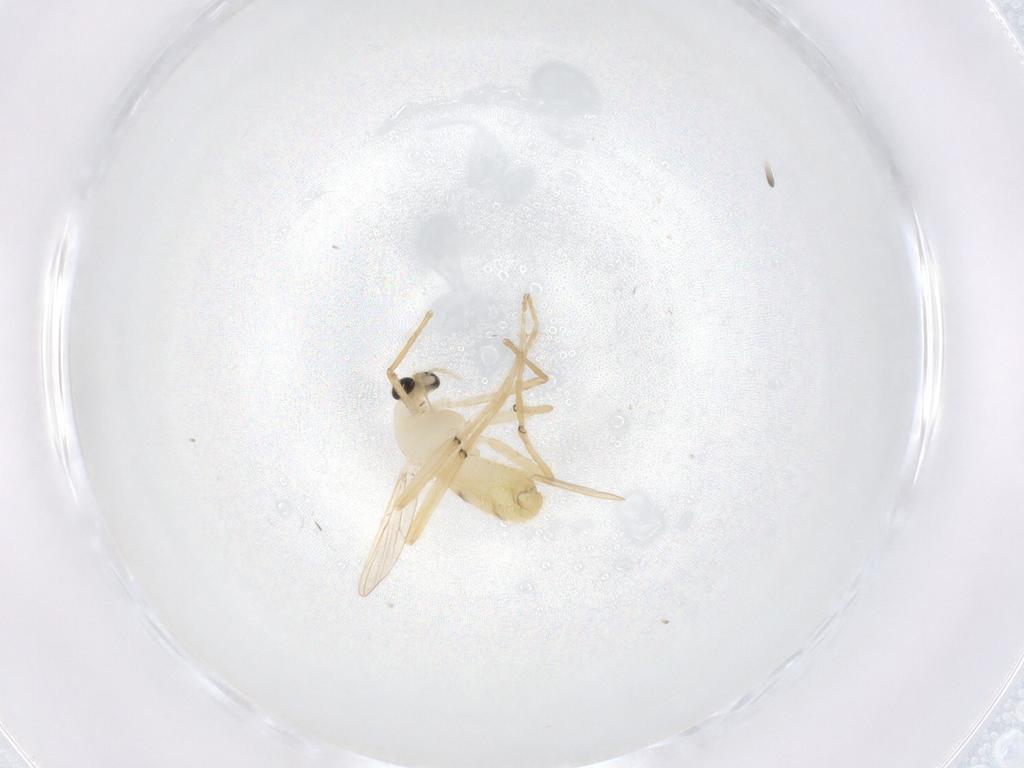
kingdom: Animalia
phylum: Arthropoda
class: Insecta
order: Diptera
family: Chironomidae
